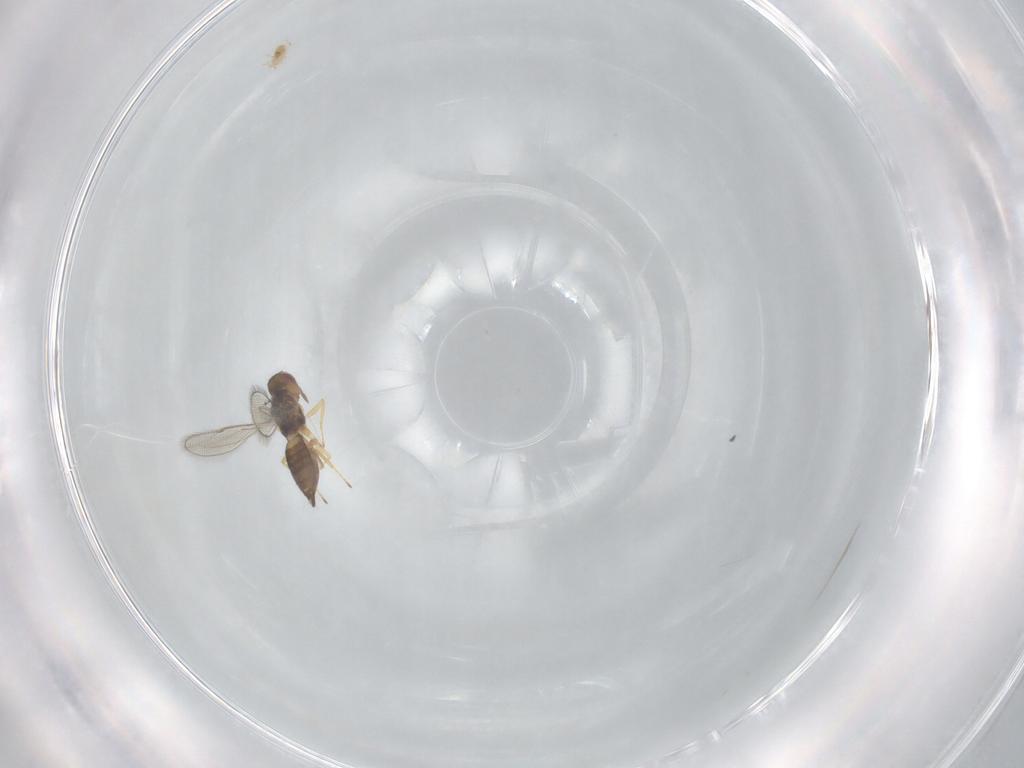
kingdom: Animalia
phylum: Arthropoda
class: Insecta
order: Hymenoptera
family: Eulophidae
